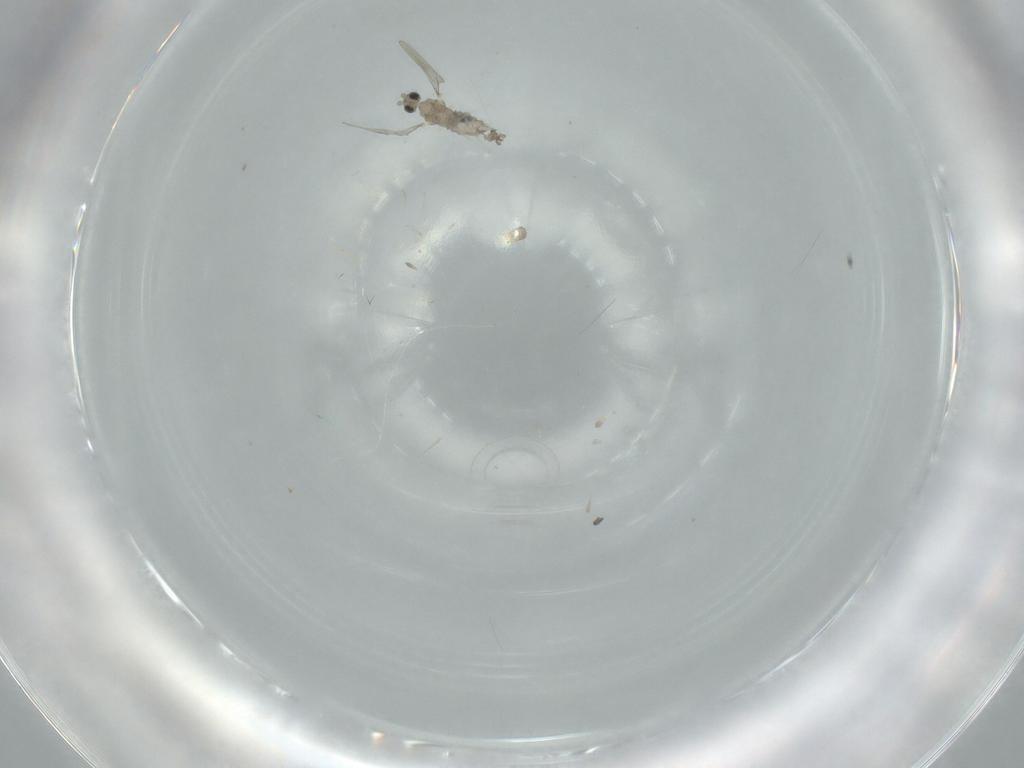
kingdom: Animalia
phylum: Arthropoda
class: Insecta
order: Diptera
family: Cecidomyiidae
